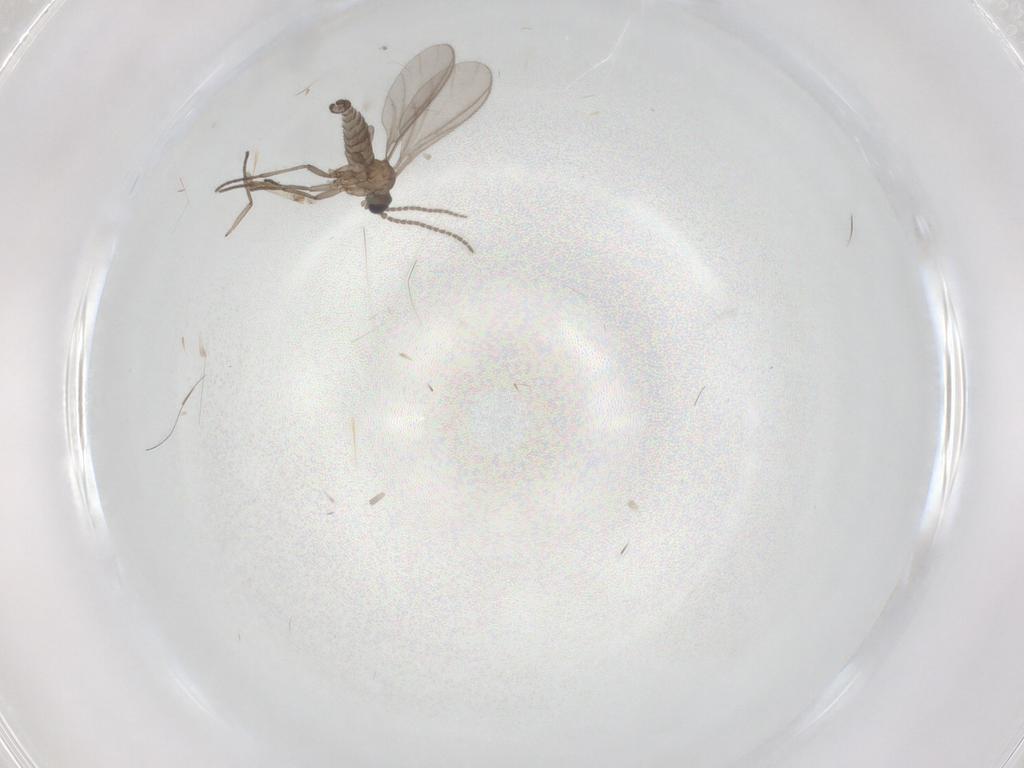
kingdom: Animalia
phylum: Arthropoda
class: Insecta
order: Diptera
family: Sciaridae
